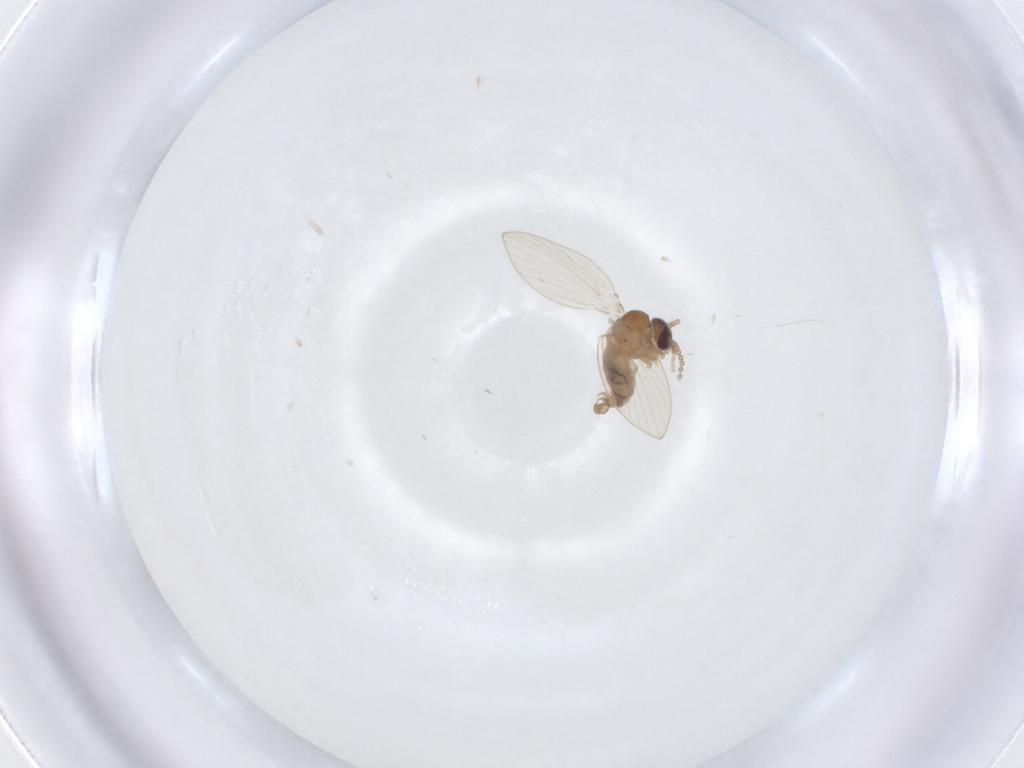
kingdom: Animalia
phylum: Arthropoda
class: Insecta
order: Diptera
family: Psychodidae
